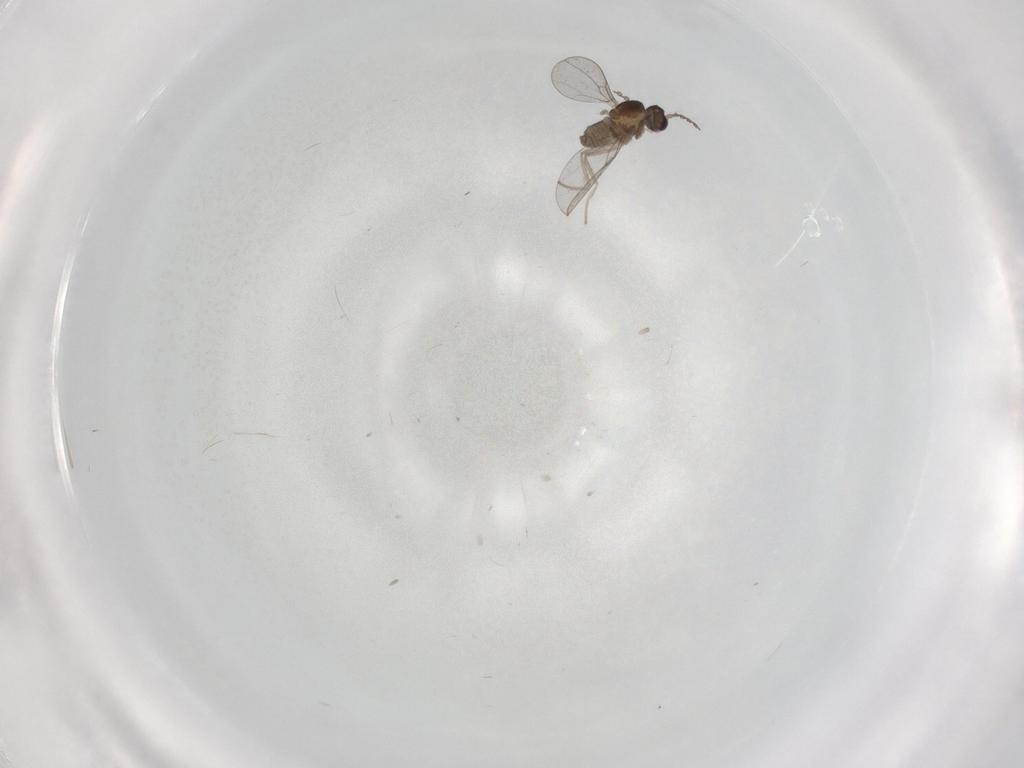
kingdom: Animalia
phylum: Arthropoda
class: Insecta
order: Diptera
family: Chironomidae
